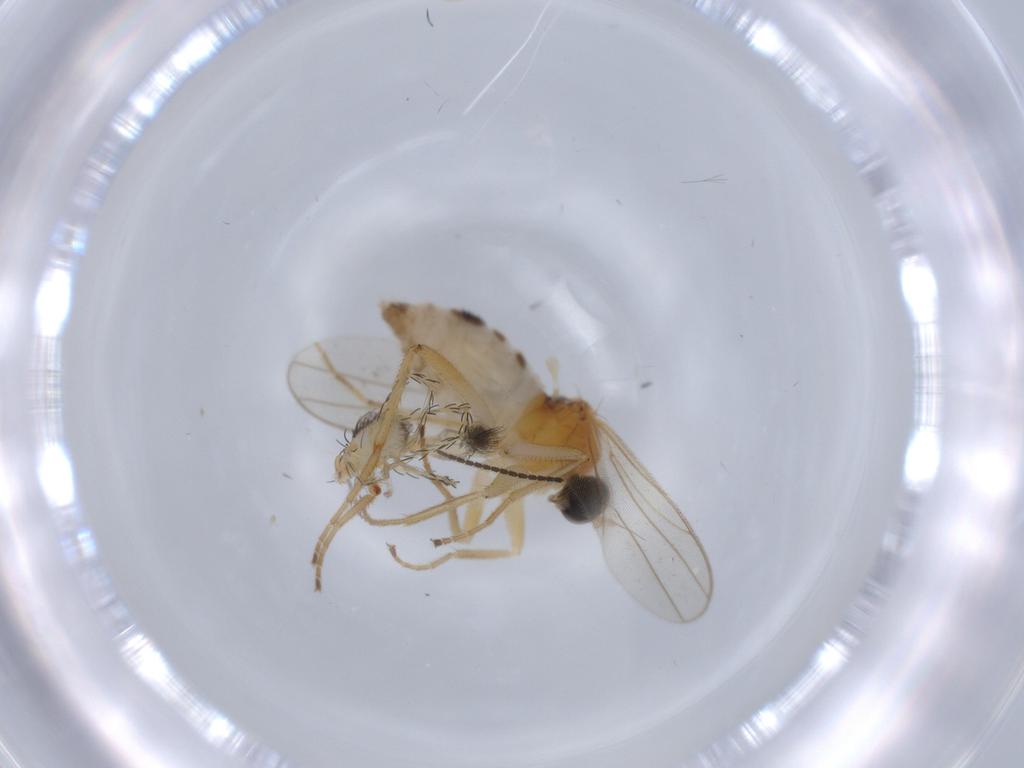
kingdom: Animalia
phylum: Arthropoda
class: Insecta
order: Diptera
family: Hybotidae
